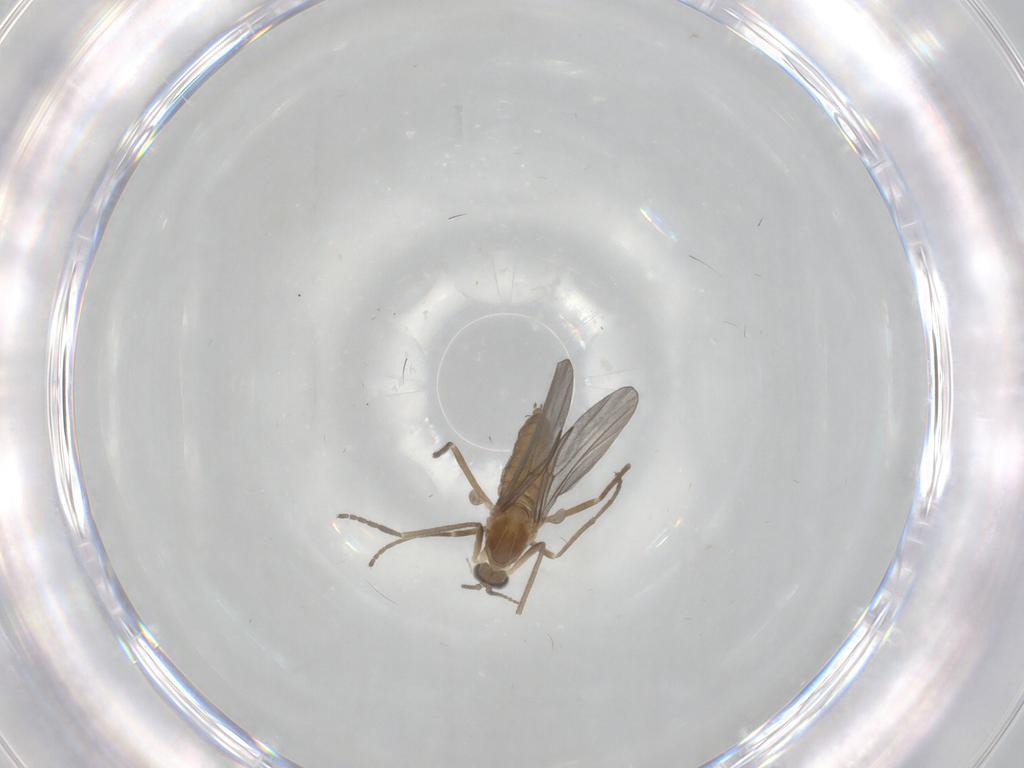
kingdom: Animalia
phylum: Arthropoda
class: Insecta
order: Diptera
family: Cecidomyiidae
